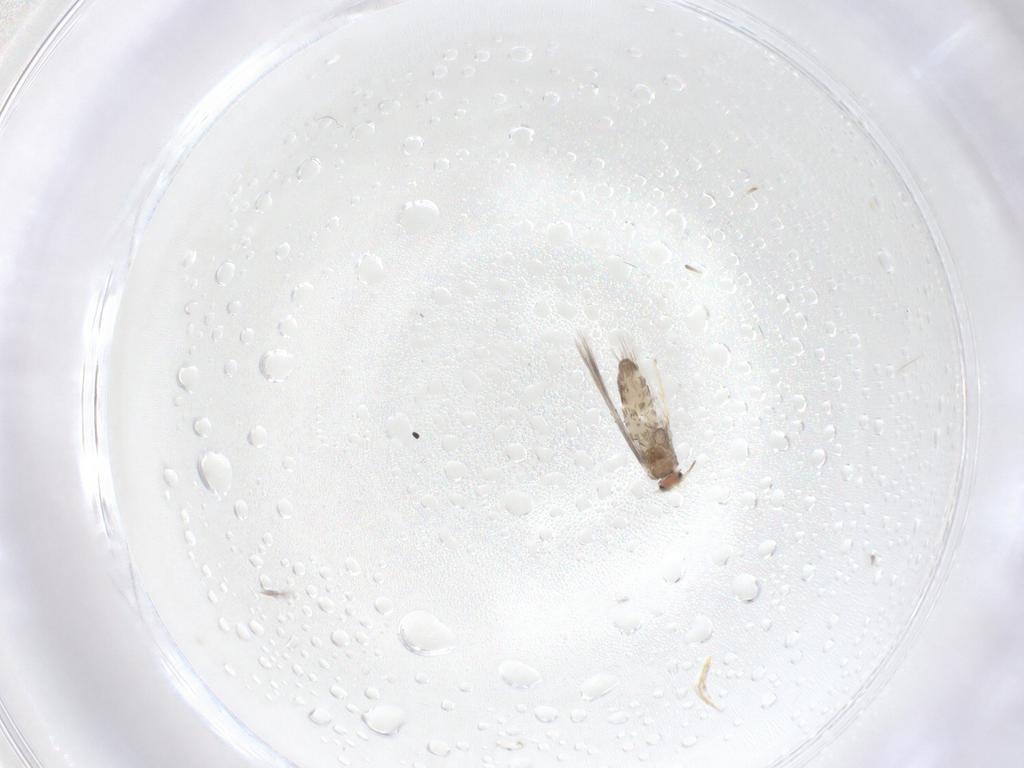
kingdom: Animalia
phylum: Arthropoda
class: Insecta
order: Lepidoptera
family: Nepticulidae
